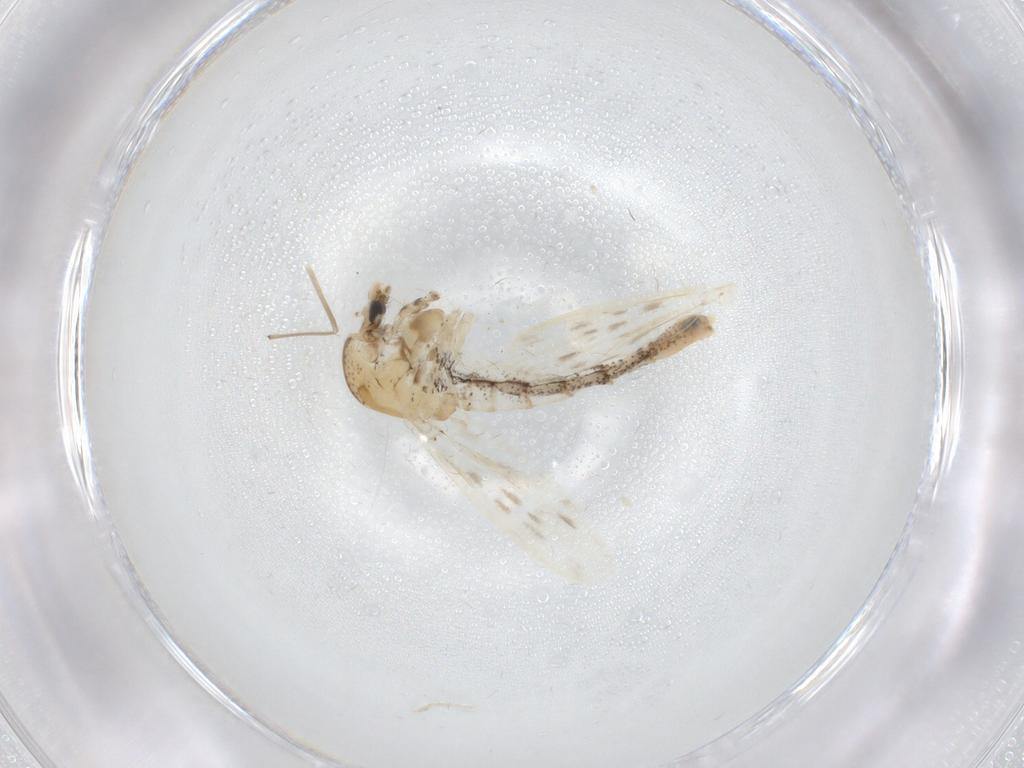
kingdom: Animalia
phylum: Arthropoda
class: Insecta
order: Diptera
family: Chaoboridae
